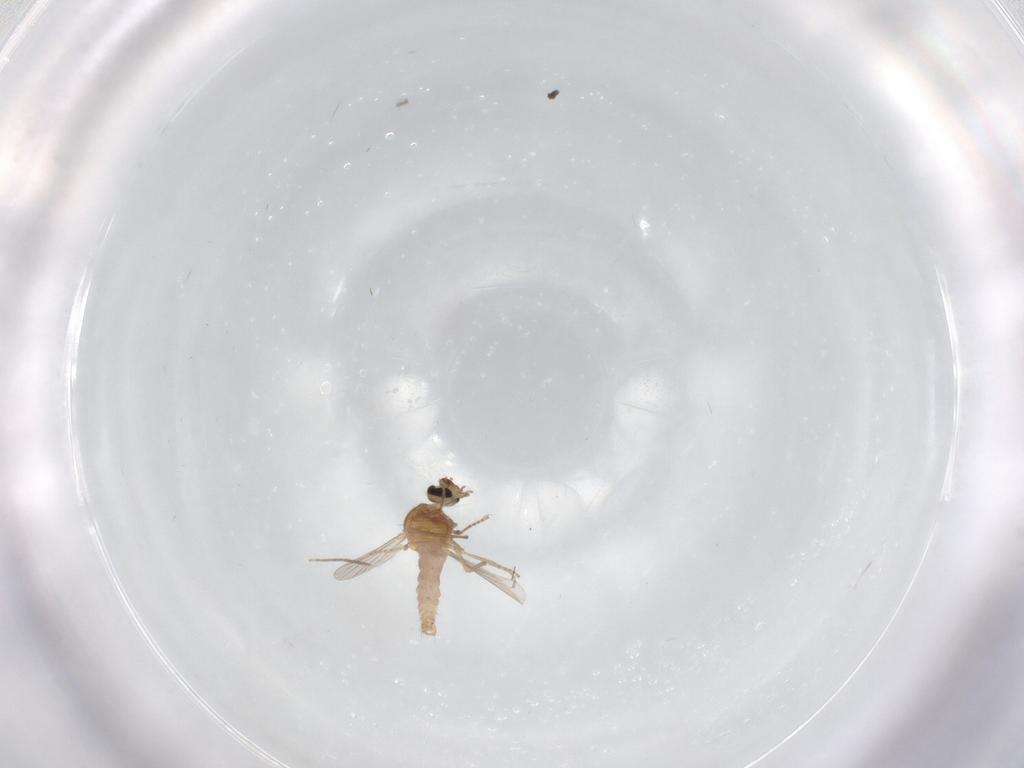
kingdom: Animalia
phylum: Arthropoda
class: Insecta
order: Diptera
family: Ceratopogonidae
